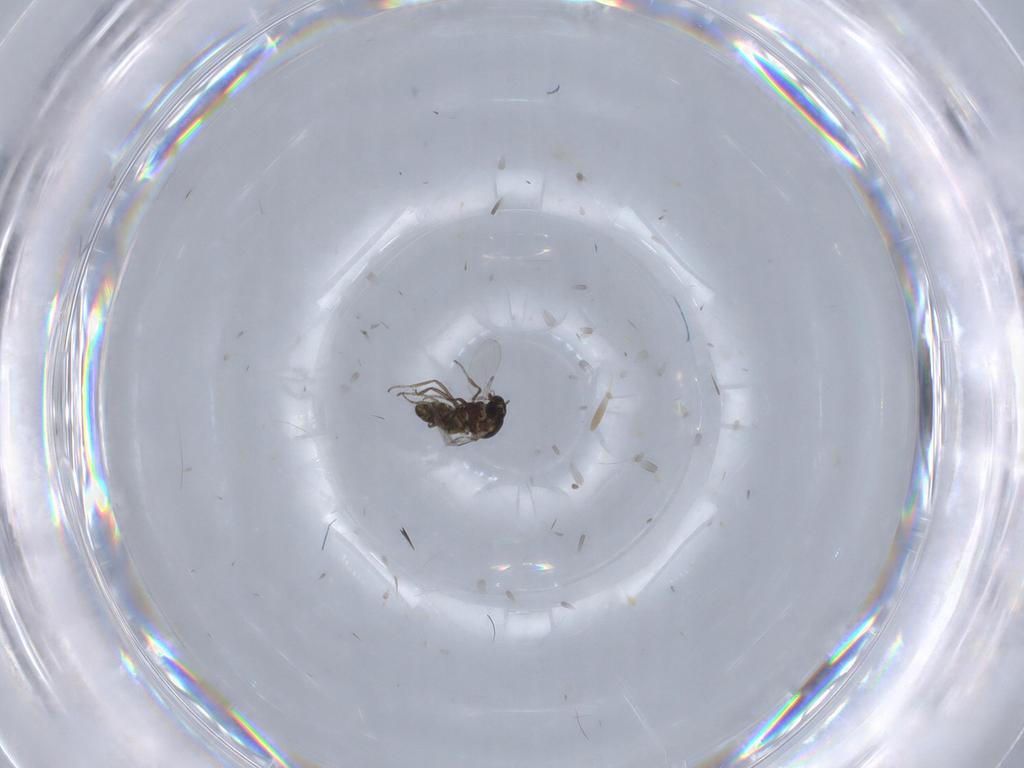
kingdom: Animalia
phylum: Arthropoda
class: Insecta
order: Diptera
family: Ceratopogonidae
